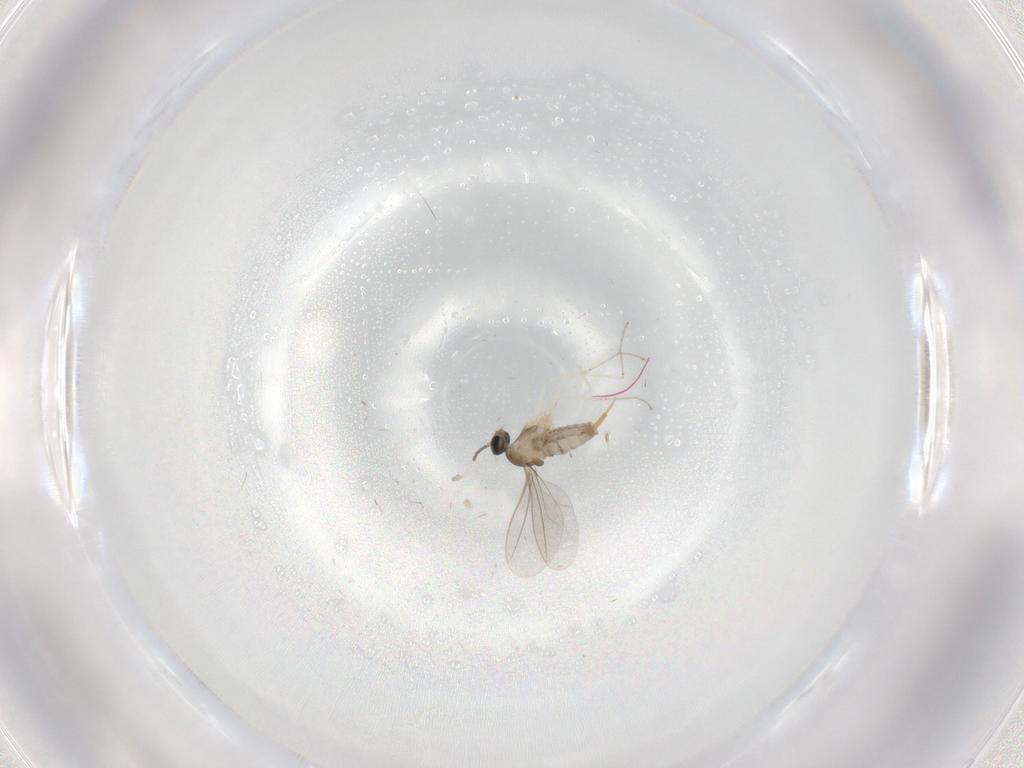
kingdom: Animalia
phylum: Arthropoda
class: Insecta
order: Diptera
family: Cecidomyiidae
